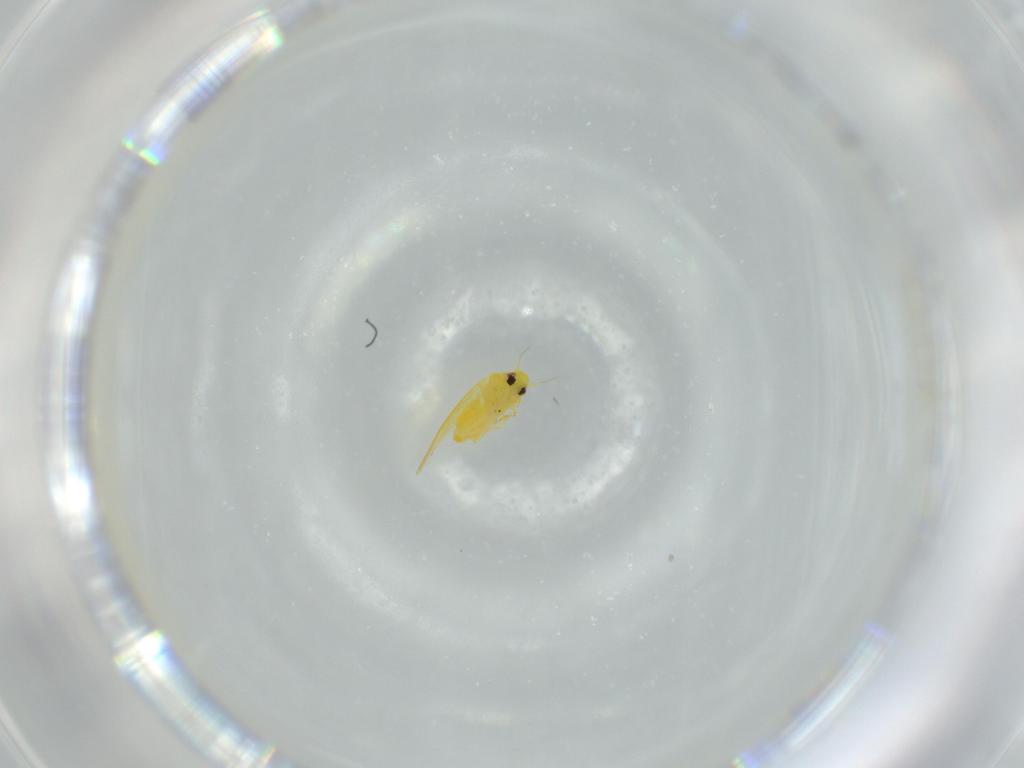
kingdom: Animalia
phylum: Arthropoda
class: Insecta
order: Hemiptera
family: Aleyrodidae
